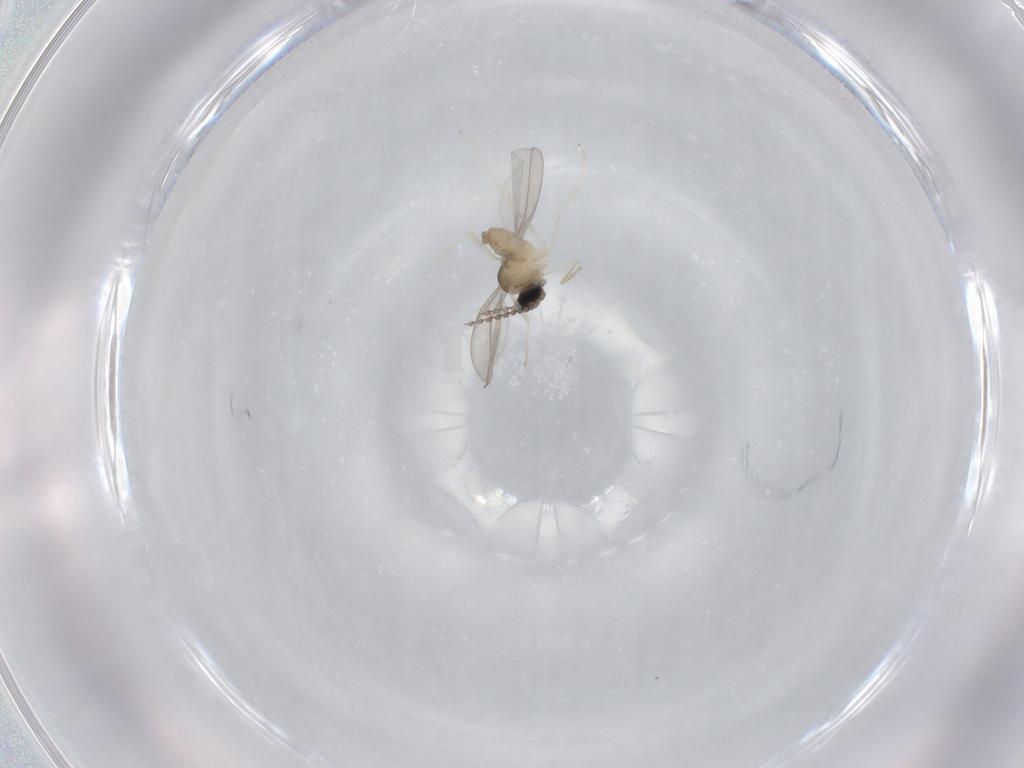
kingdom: Animalia
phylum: Arthropoda
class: Insecta
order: Diptera
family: Cecidomyiidae
